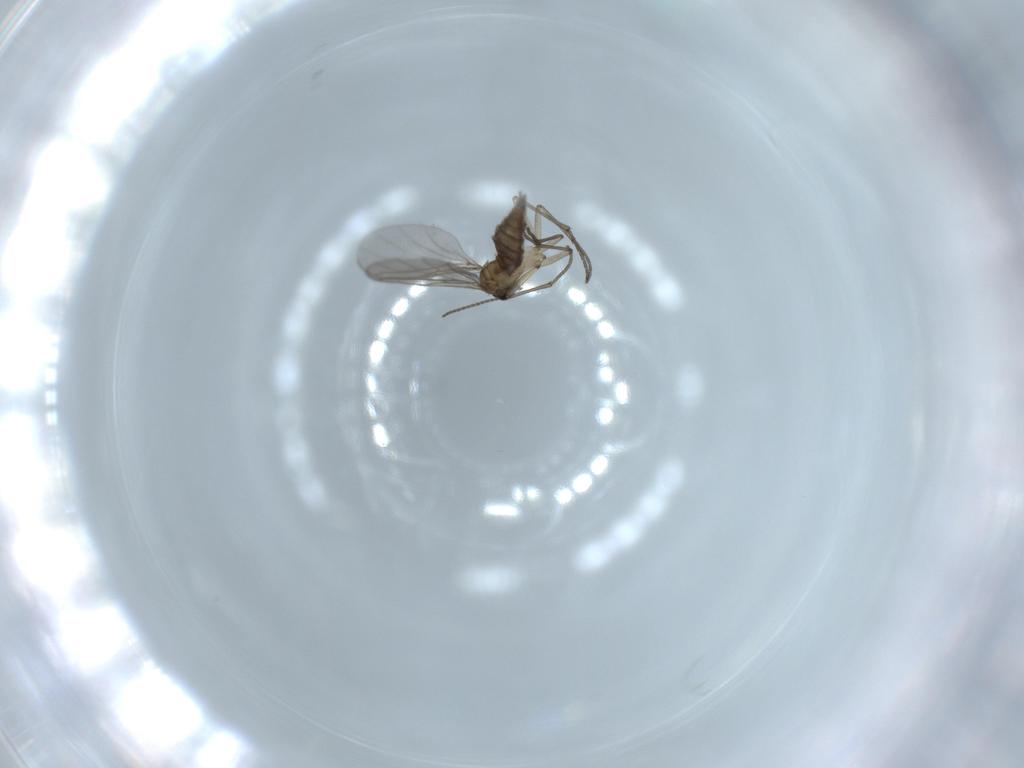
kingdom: Animalia
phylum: Arthropoda
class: Insecta
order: Diptera
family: Sciaridae
